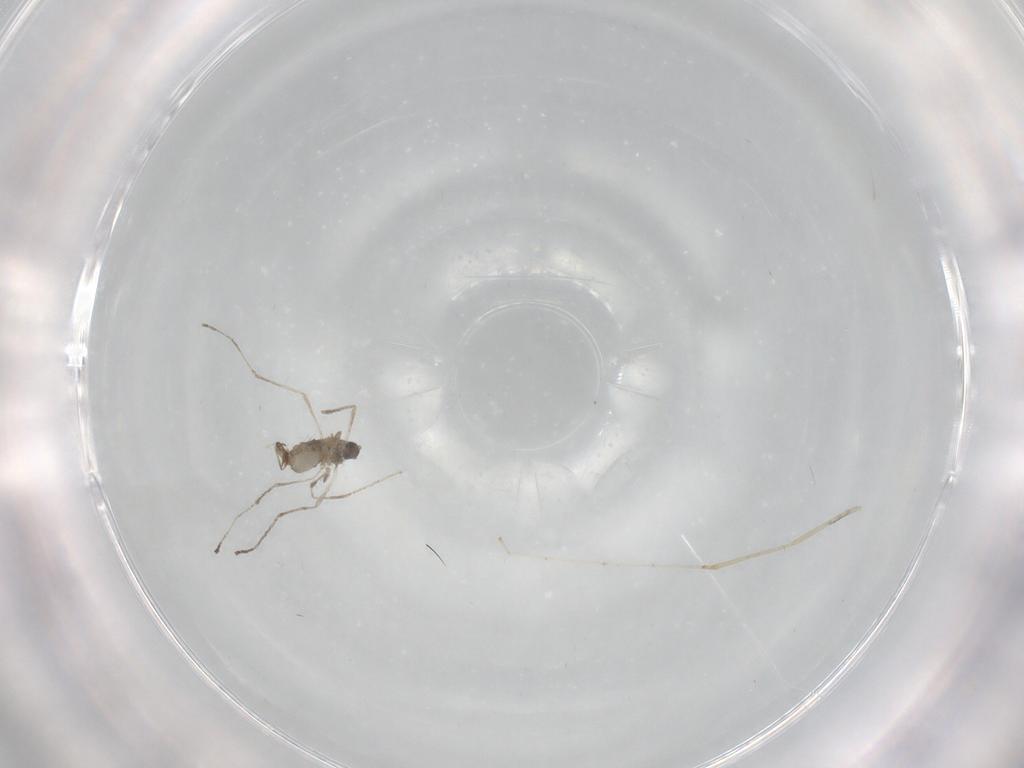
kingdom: Animalia
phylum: Arthropoda
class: Insecta
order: Diptera
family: Cecidomyiidae
